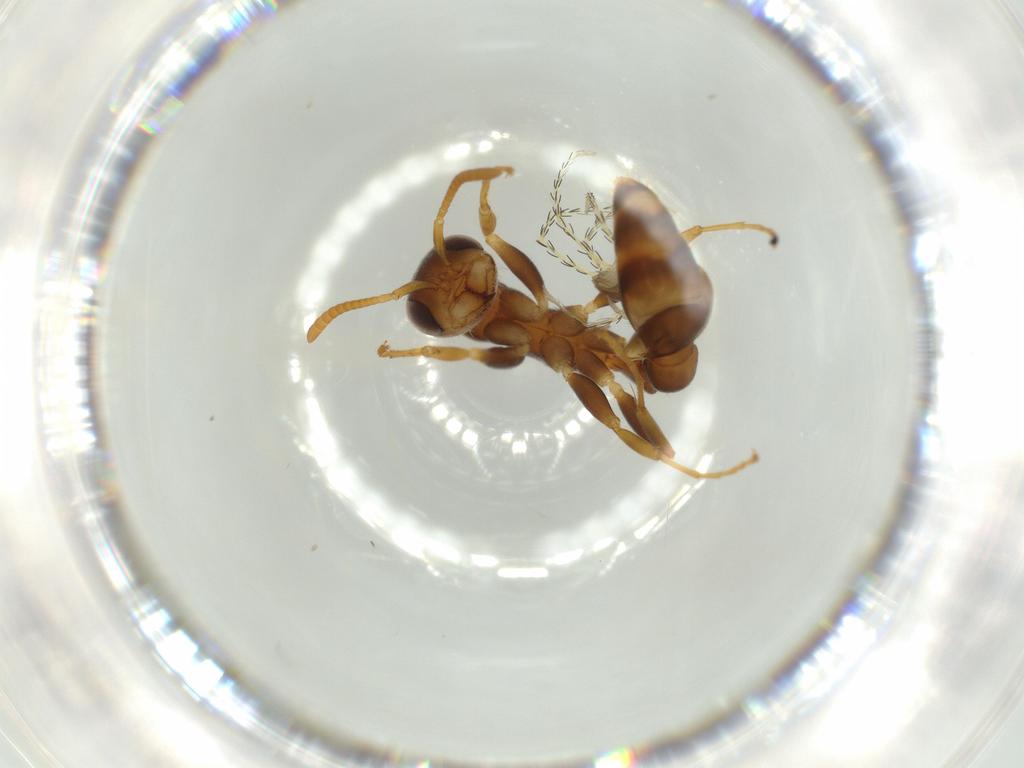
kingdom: Animalia
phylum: Arthropoda
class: Insecta
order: Hymenoptera
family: Formicidae
